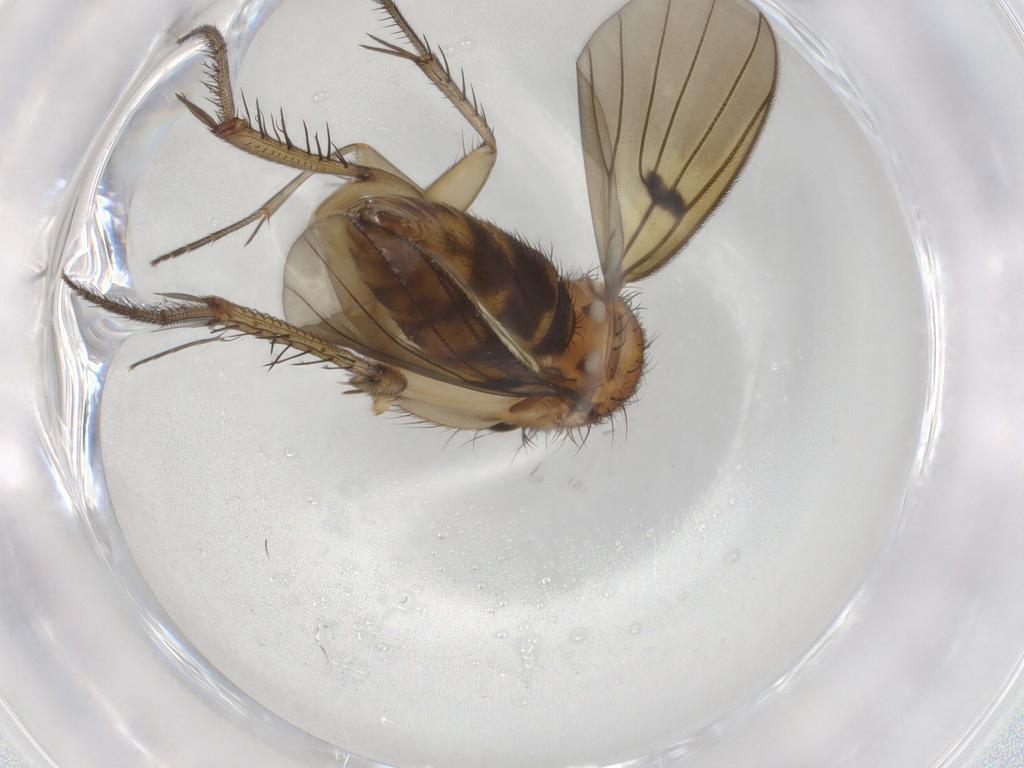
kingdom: Animalia
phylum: Arthropoda
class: Insecta
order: Diptera
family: Mycetophilidae
